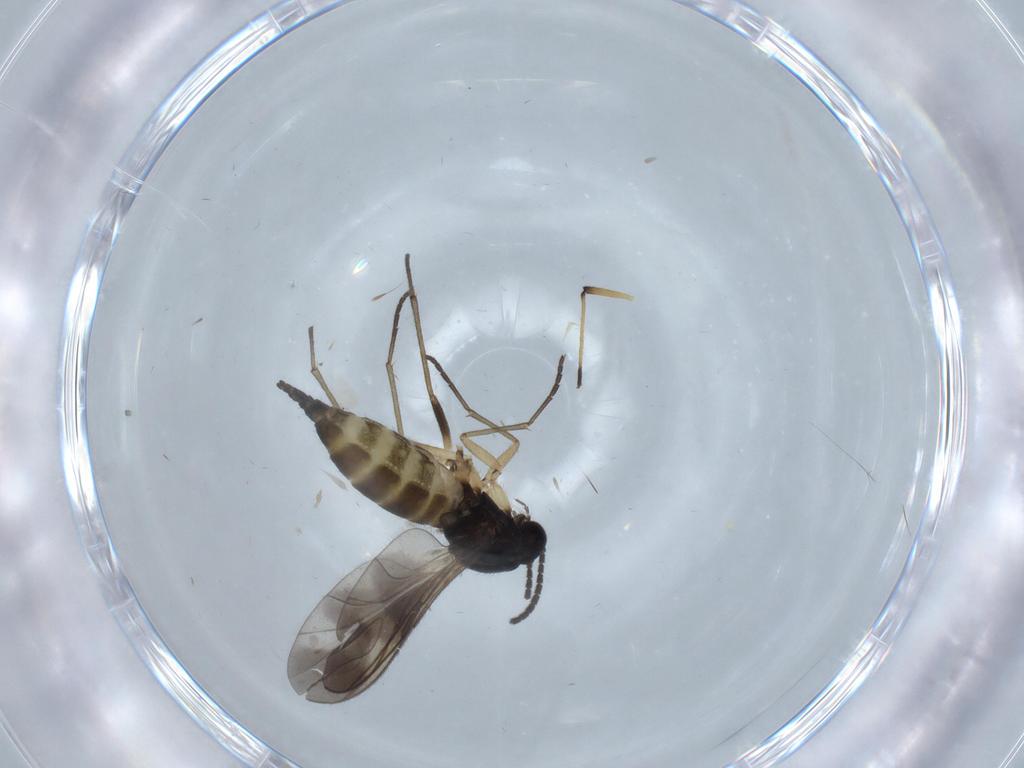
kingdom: Animalia
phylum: Arthropoda
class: Insecta
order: Diptera
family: Sciaridae
